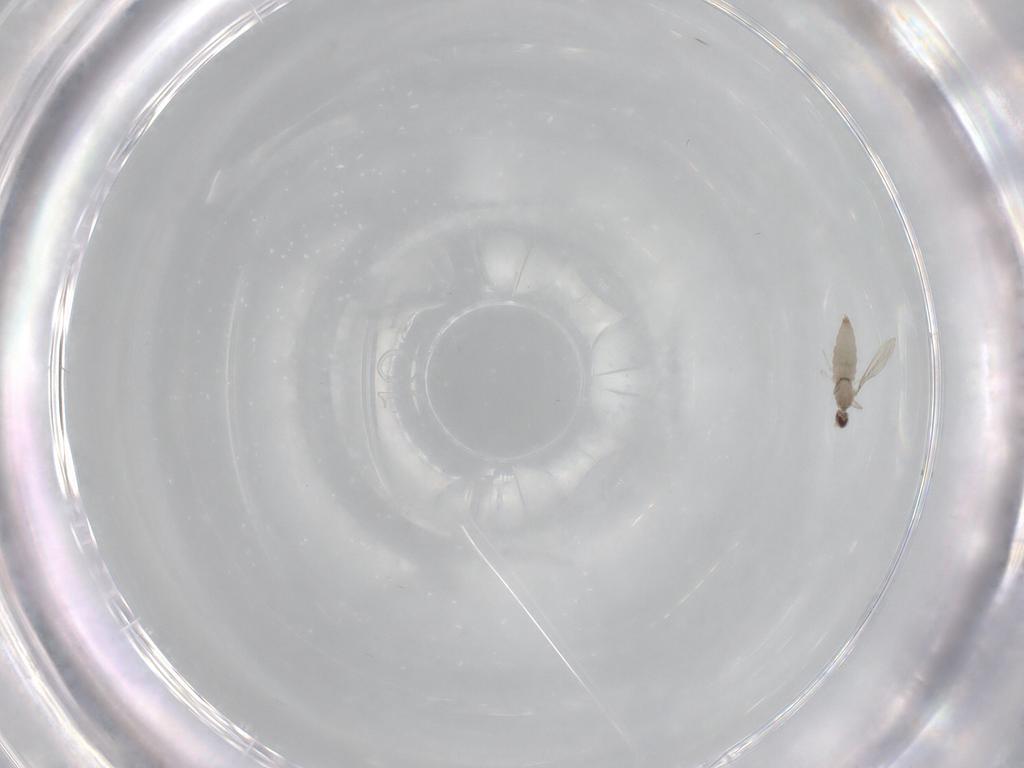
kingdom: Animalia
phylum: Arthropoda
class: Insecta
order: Diptera
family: Cecidomyiidae
